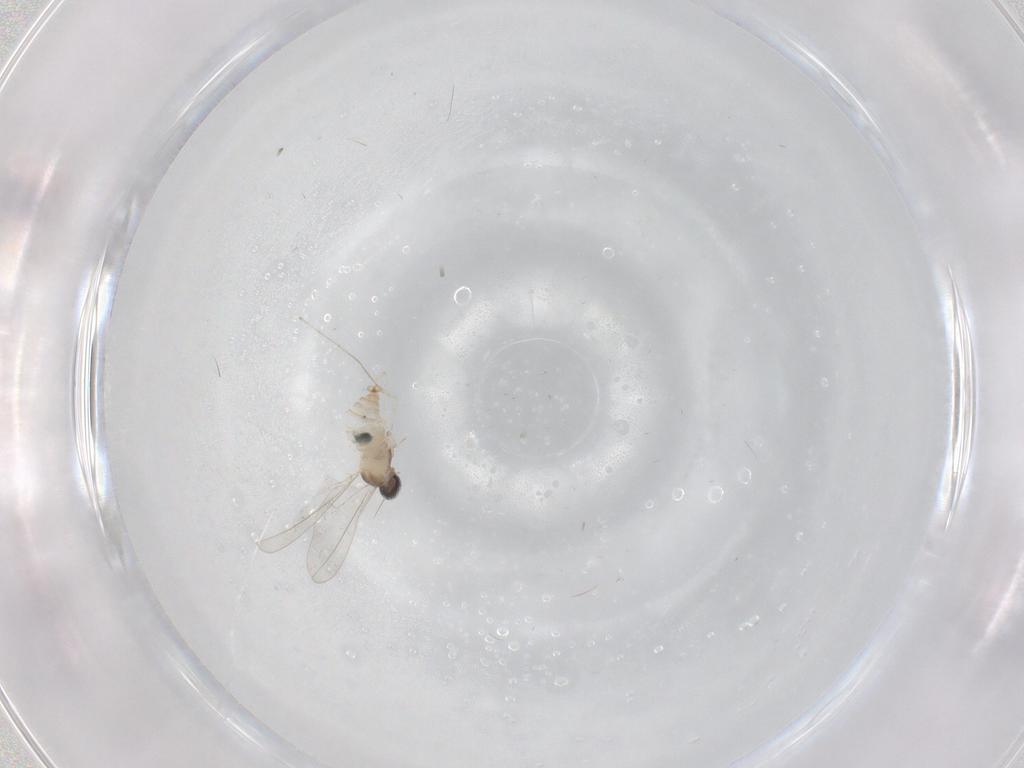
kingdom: Animalia
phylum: Arthropoda
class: Insecta
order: Diptera
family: Cecidomyiidae
